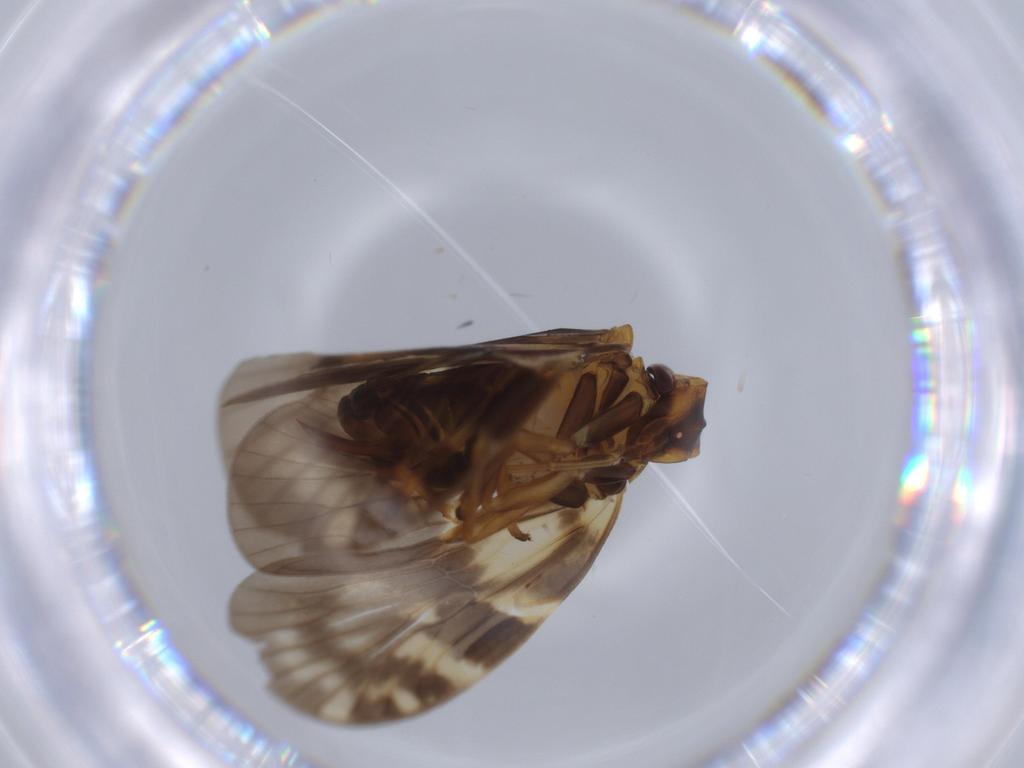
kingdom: Animalia
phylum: Arthropoda
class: Insecta
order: Hemiptera
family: Cixiidae
